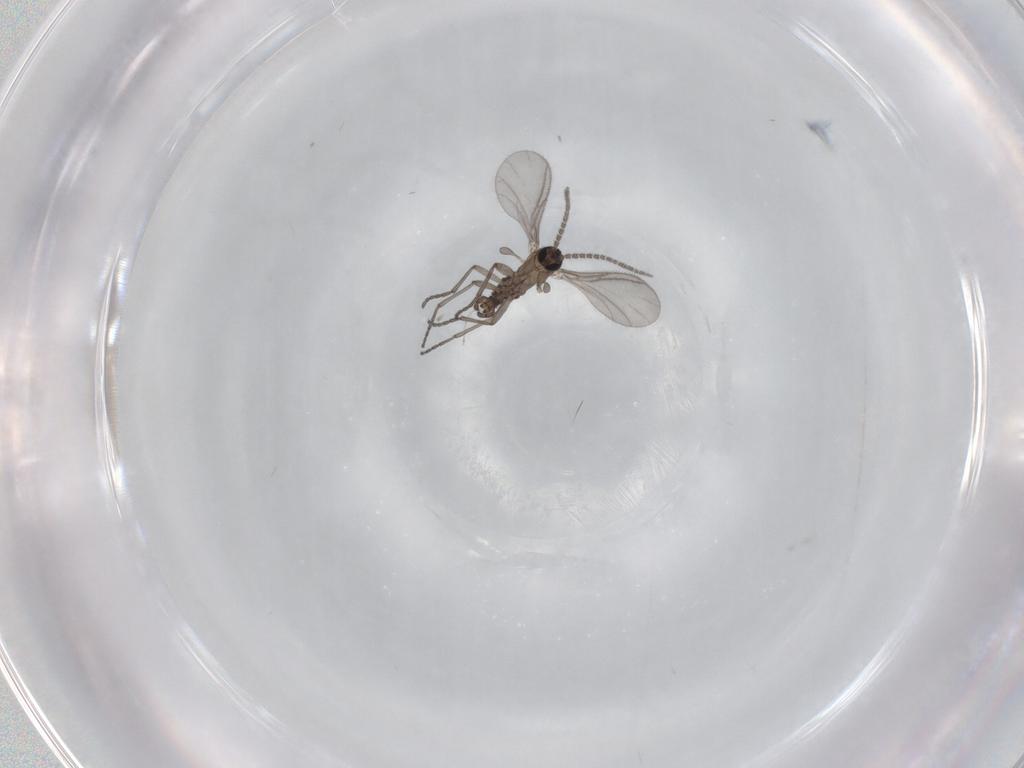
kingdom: Animalia
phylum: Arthropoda
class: Insecta
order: Diptera
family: Sciaridae
